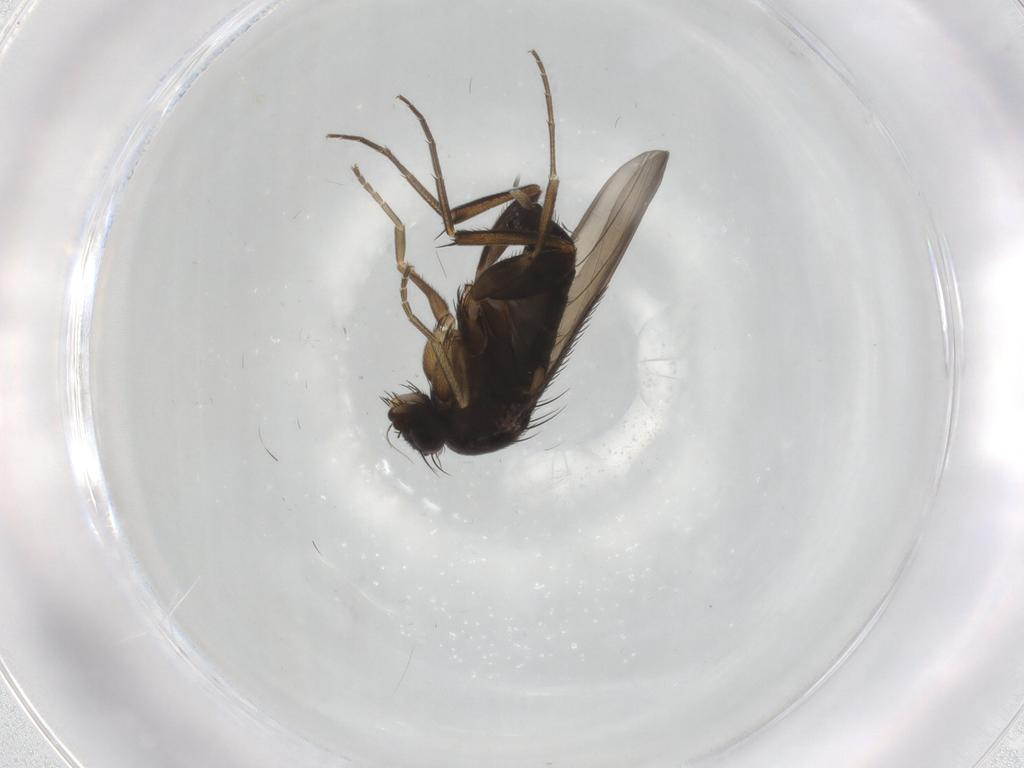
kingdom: Animalia
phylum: Arthropoda
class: Insecta
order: Diptera
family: Phoridae
